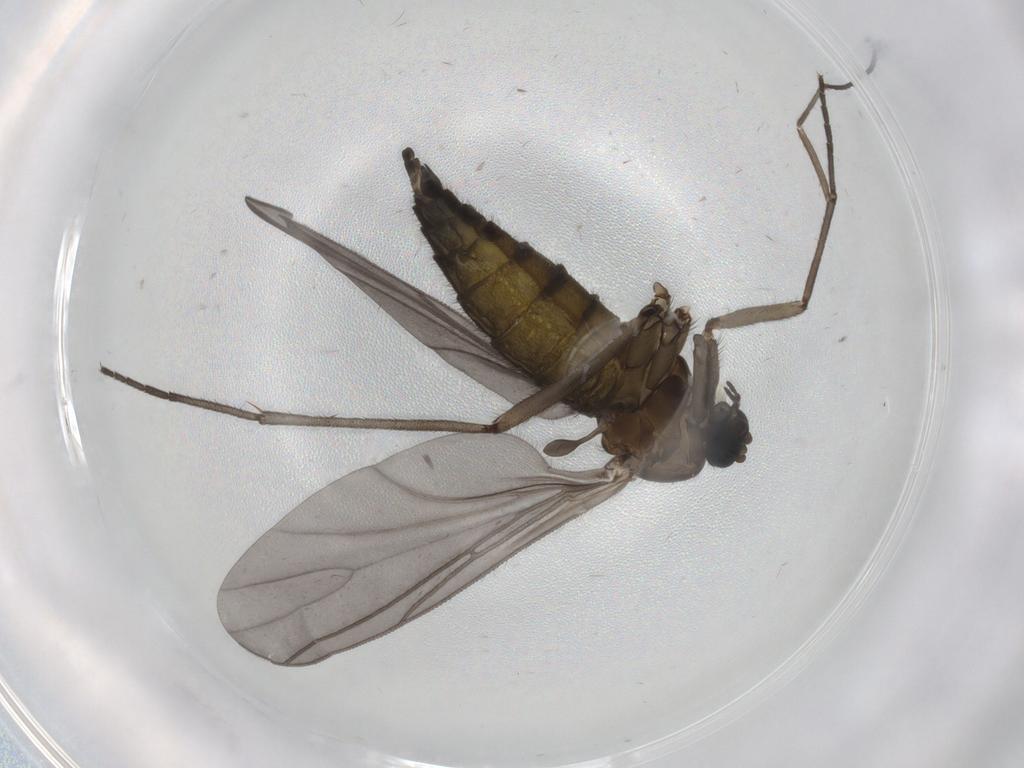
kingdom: Animalia
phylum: Arthropoda
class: Insecta
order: Diptera
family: Sciaridae
